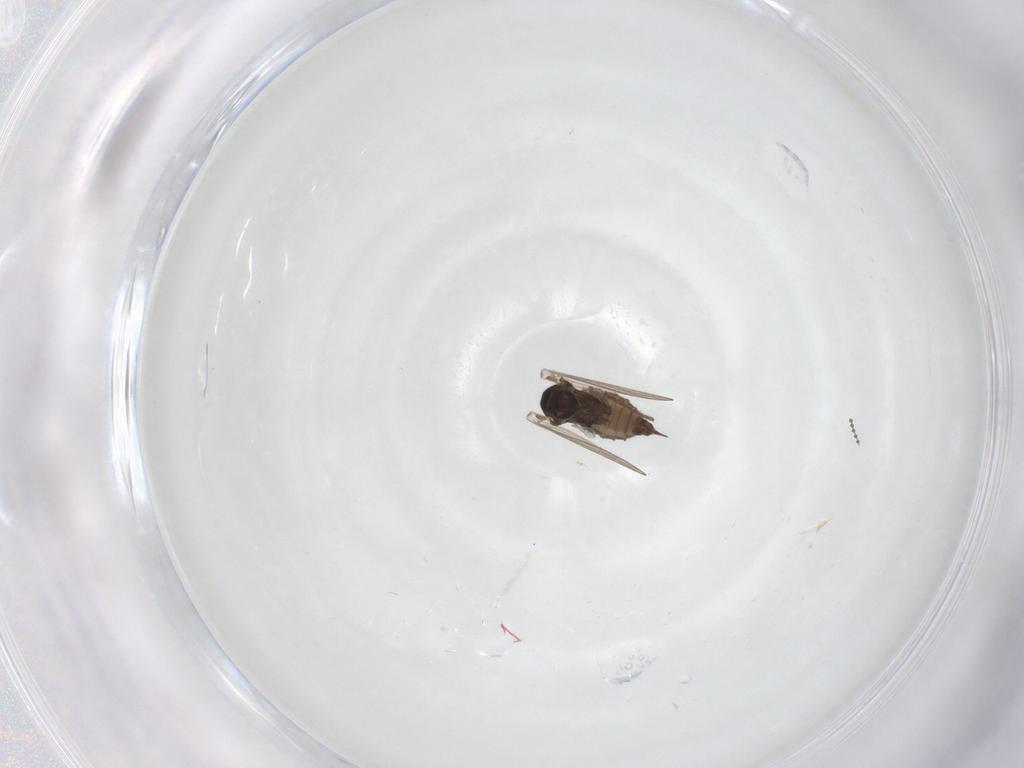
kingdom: Animalia
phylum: Arthropoda
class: Insecta
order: Diptera
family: Psychodidae
